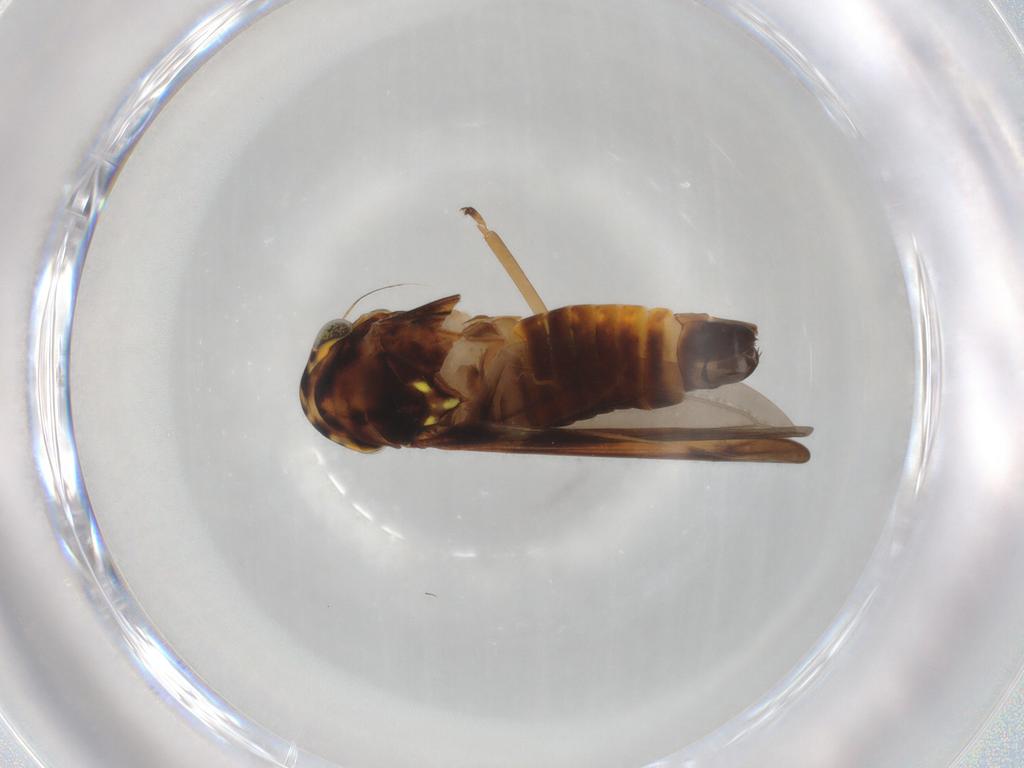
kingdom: Animalia
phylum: Arthropoda
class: Insecta
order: Hemiptera
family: Cicadellidae
